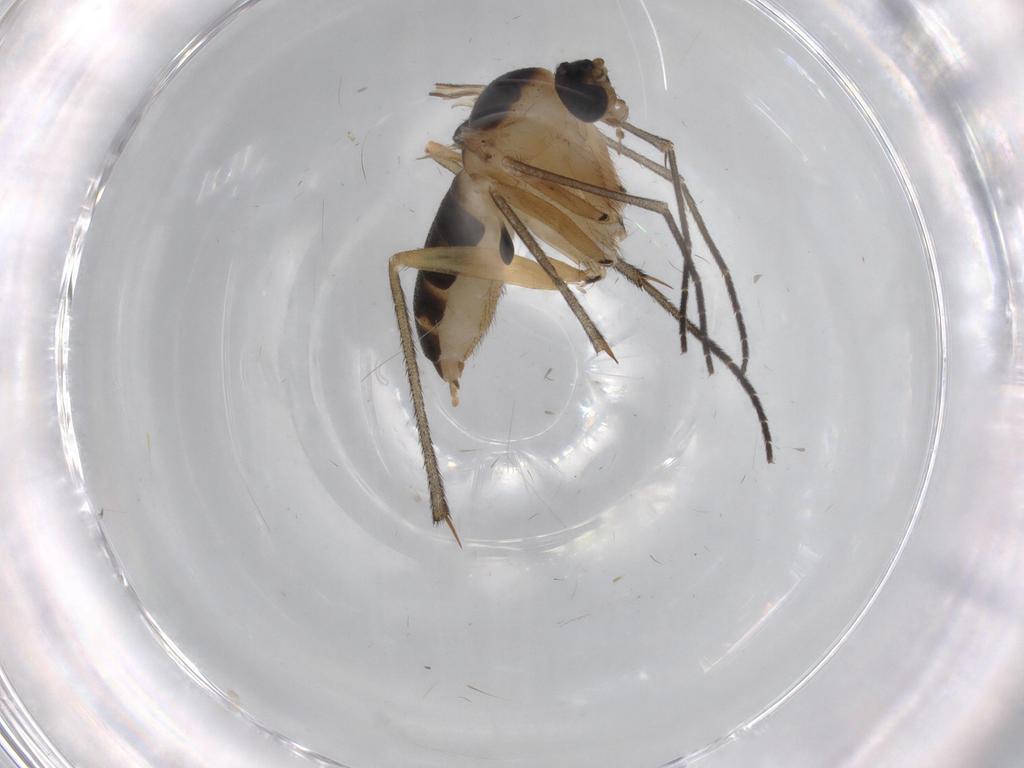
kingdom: Animalia
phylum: Arthropoda
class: Insecta
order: Diptera
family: Sciaridae
